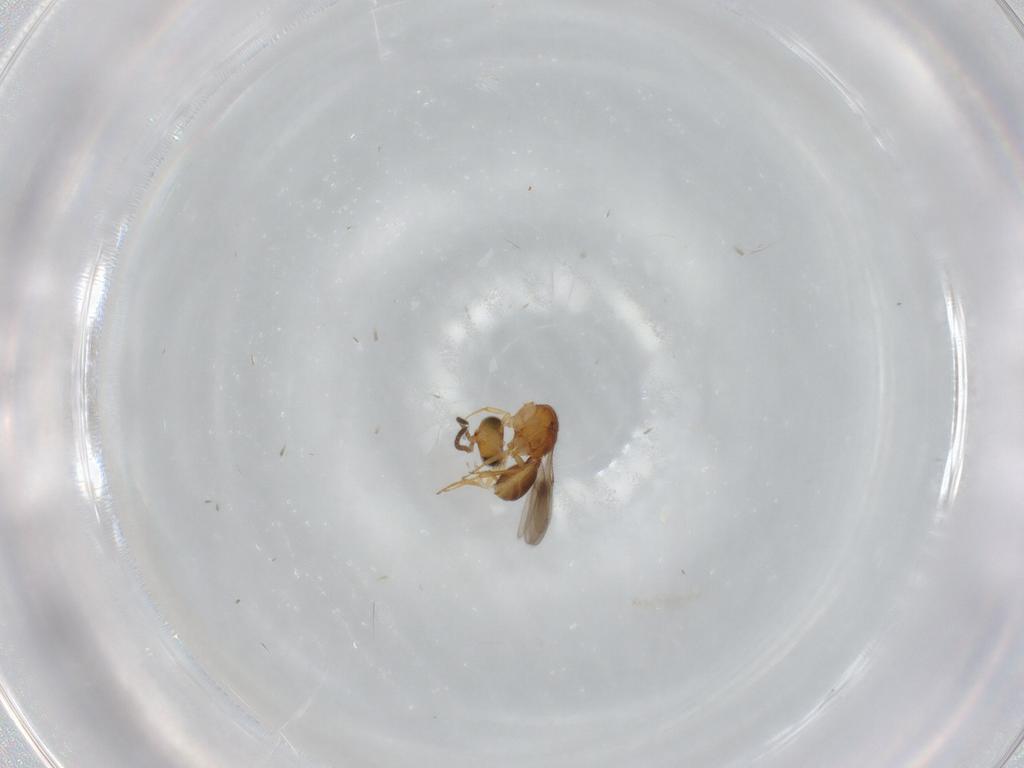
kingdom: Animalia
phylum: Arthropoda
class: Insecta
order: Hymenoptera
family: Scelionidae
